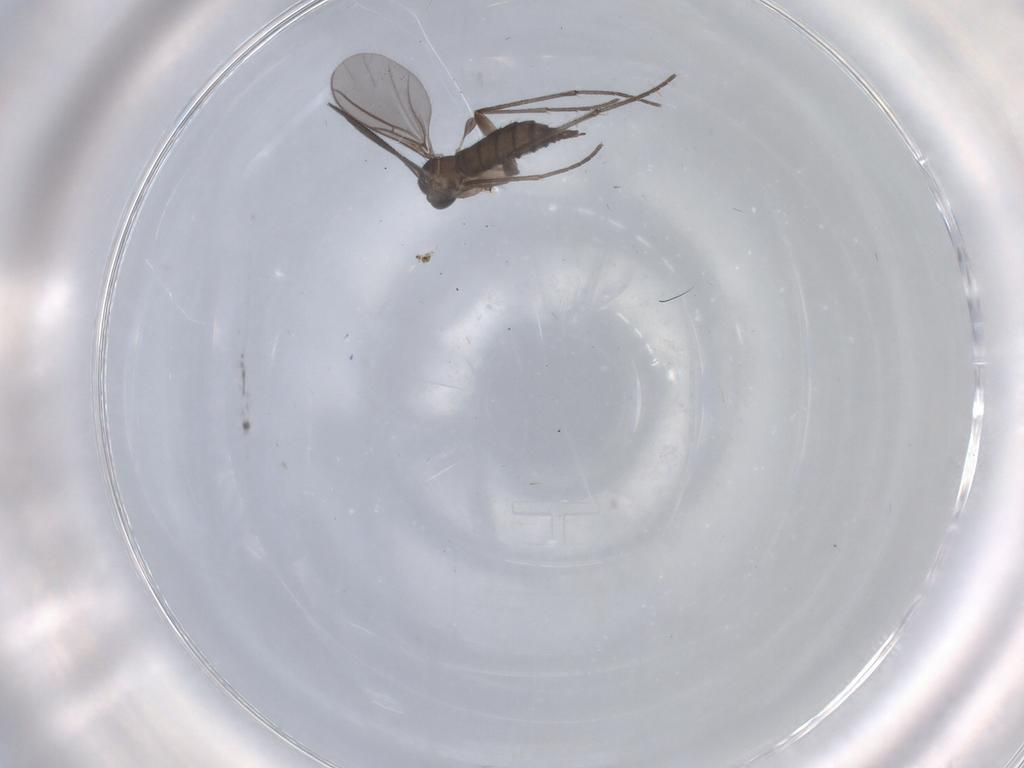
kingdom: Animalia
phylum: Arthropoda
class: Insecta
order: Diptera
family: Sciaridae
